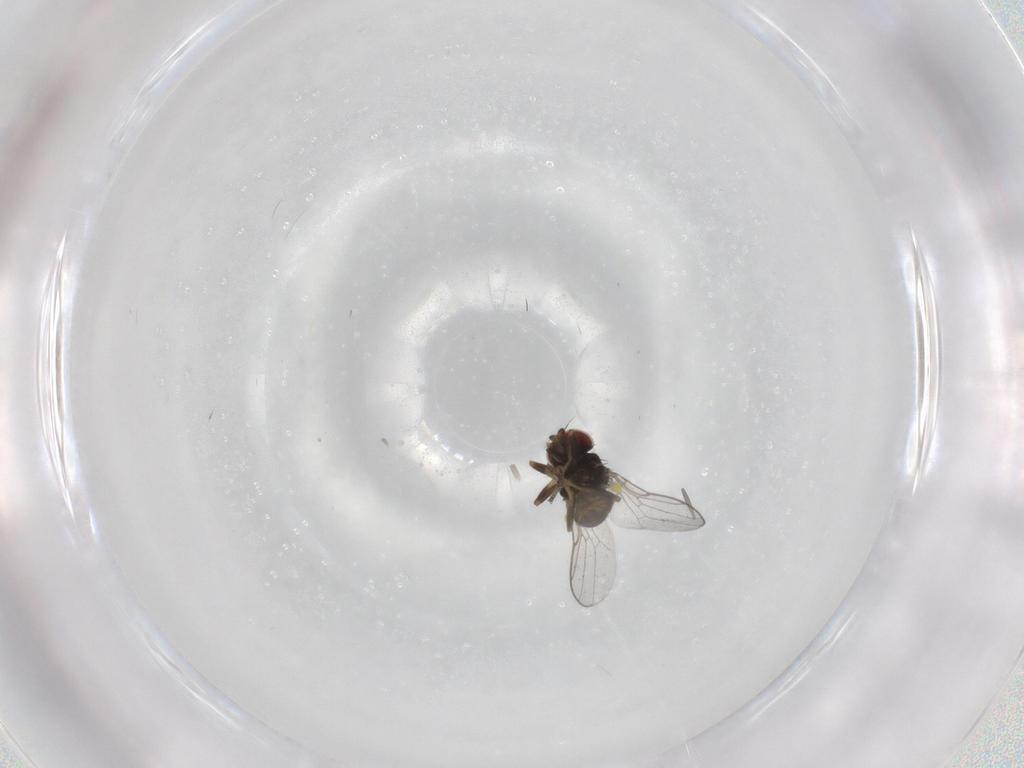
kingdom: Animalia
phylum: Arthropoda
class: Insecta
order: Diptera
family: Chloropidae
